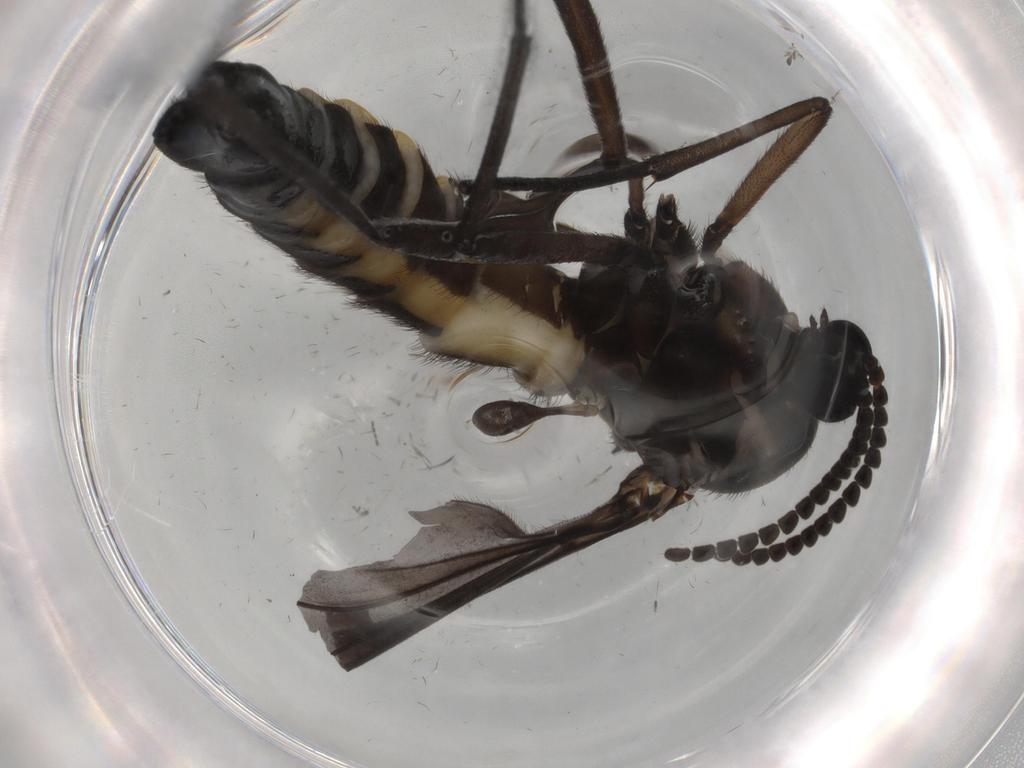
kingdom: Animalia
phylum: Arthropoda
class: Insecta
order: Diptera
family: Sciaridae
